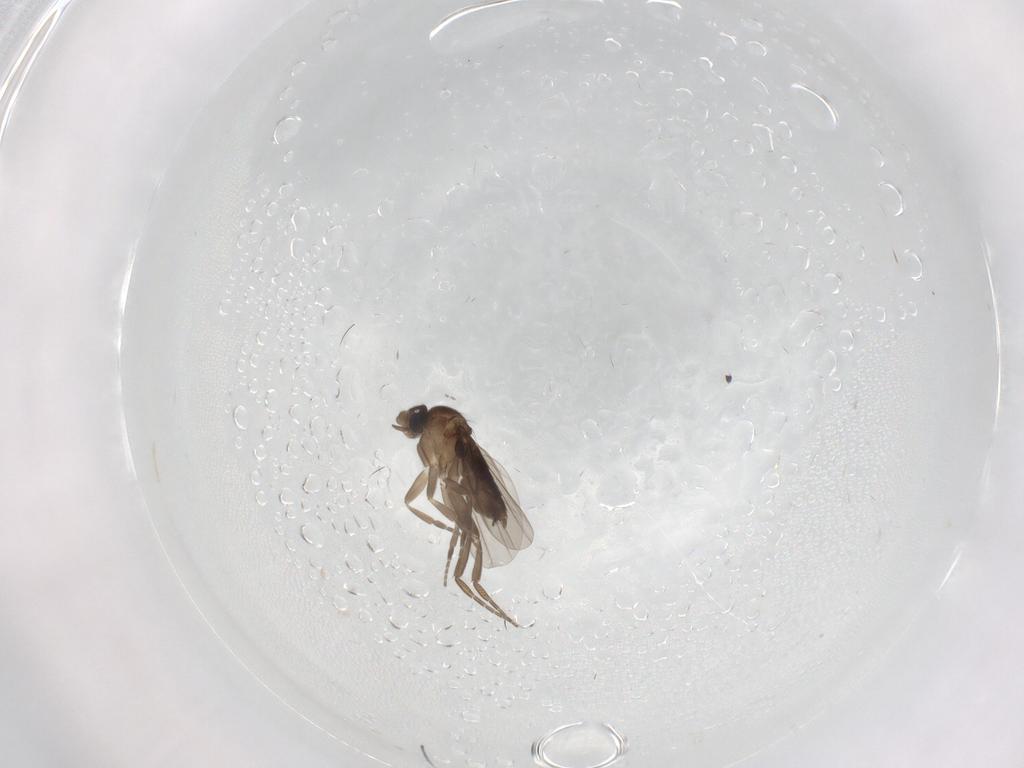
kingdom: Animalia
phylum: Arthropoda
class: Insecta
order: Diptera
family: Phoridae
